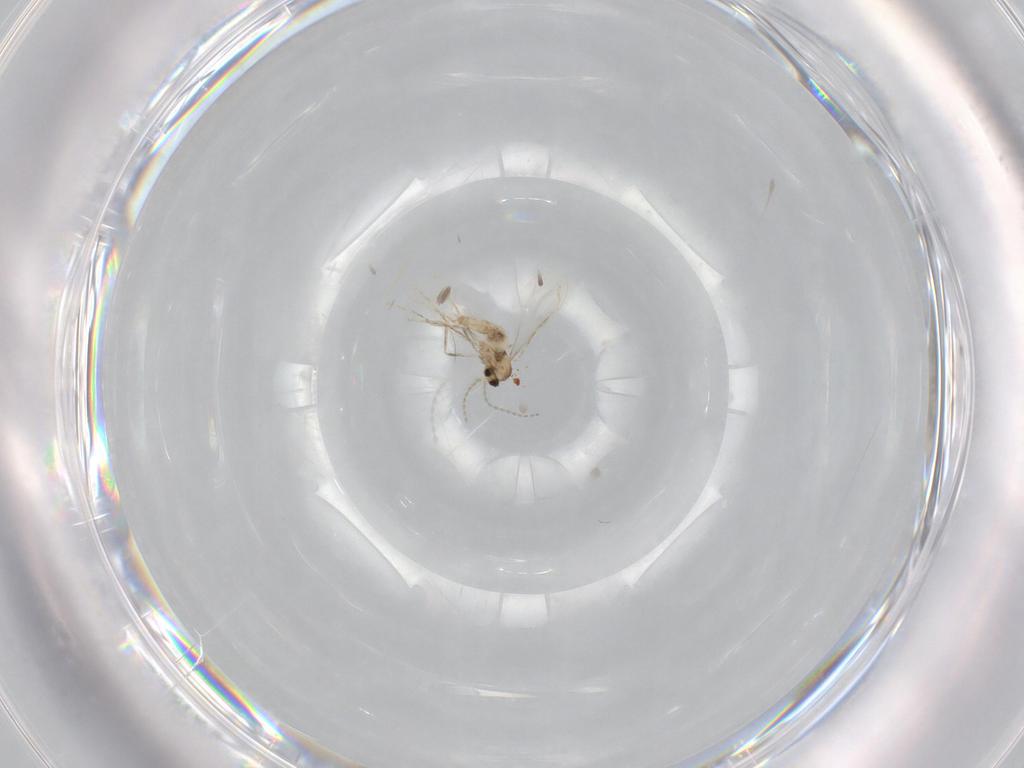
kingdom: Animalia
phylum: Arthropoda
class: Insecta
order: Diptera
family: Cecidomyiidae
